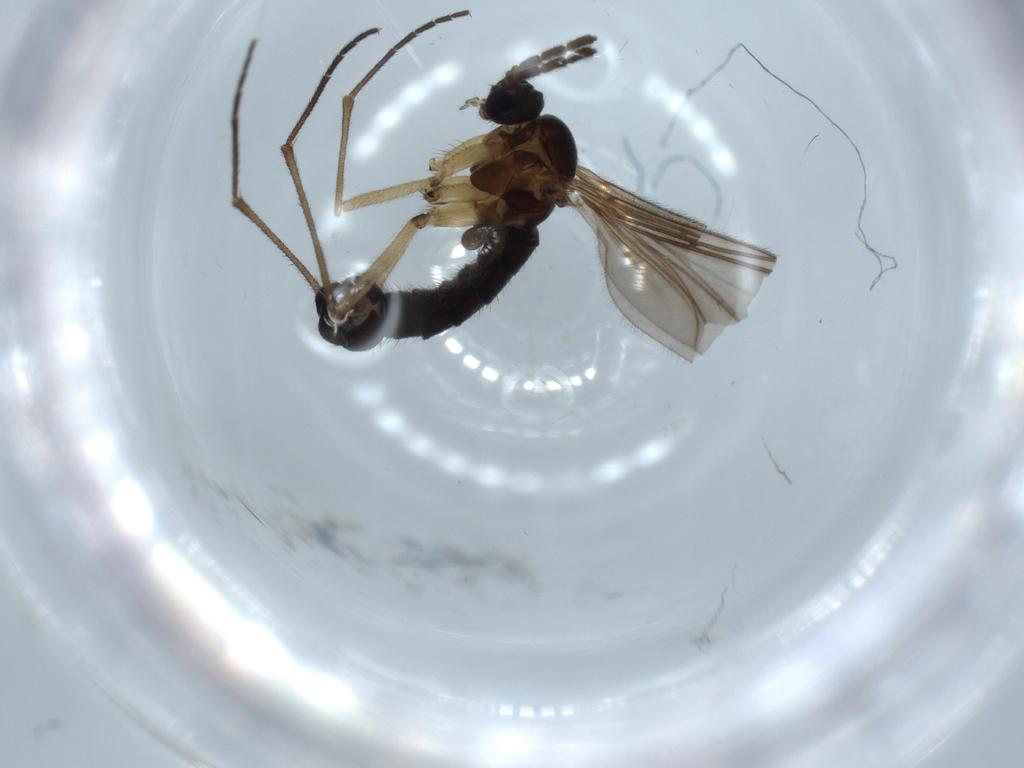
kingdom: Animalia
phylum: Arthropoda
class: Insecta
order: Diptera
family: Sciaridae
